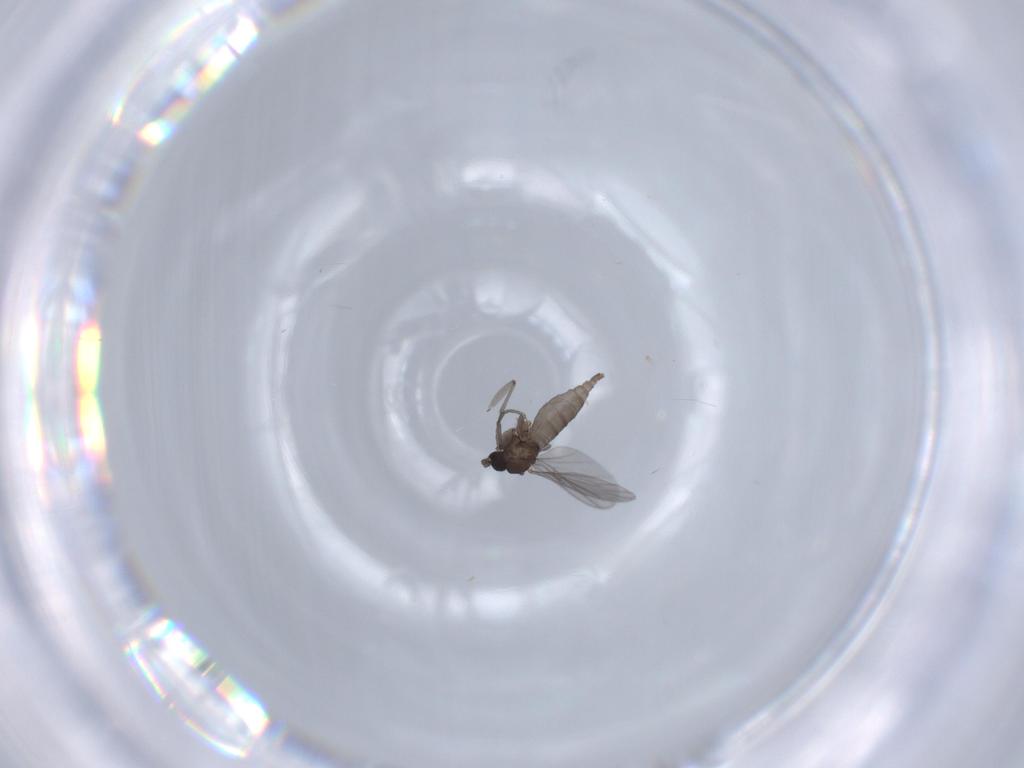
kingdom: Animalia
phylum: Arthropoda
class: Insecta
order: Diptera
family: Sciaridae
